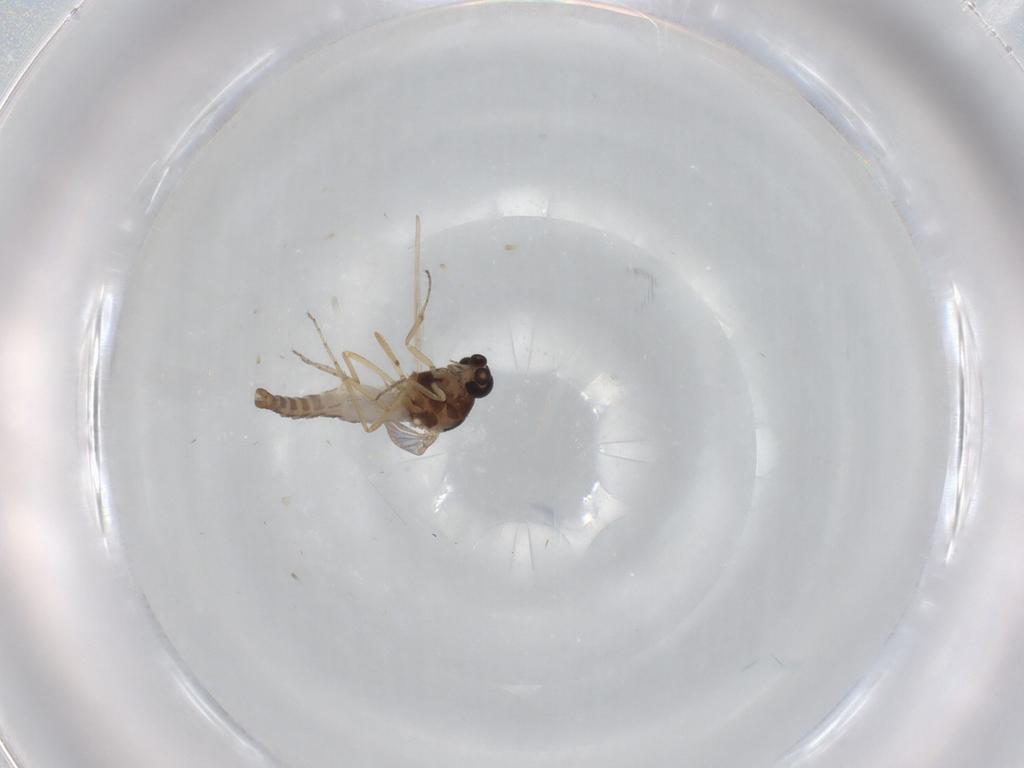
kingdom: Animalia
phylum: Arthropoda
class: Insecta
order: Diptera
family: Ceratopogonidae
